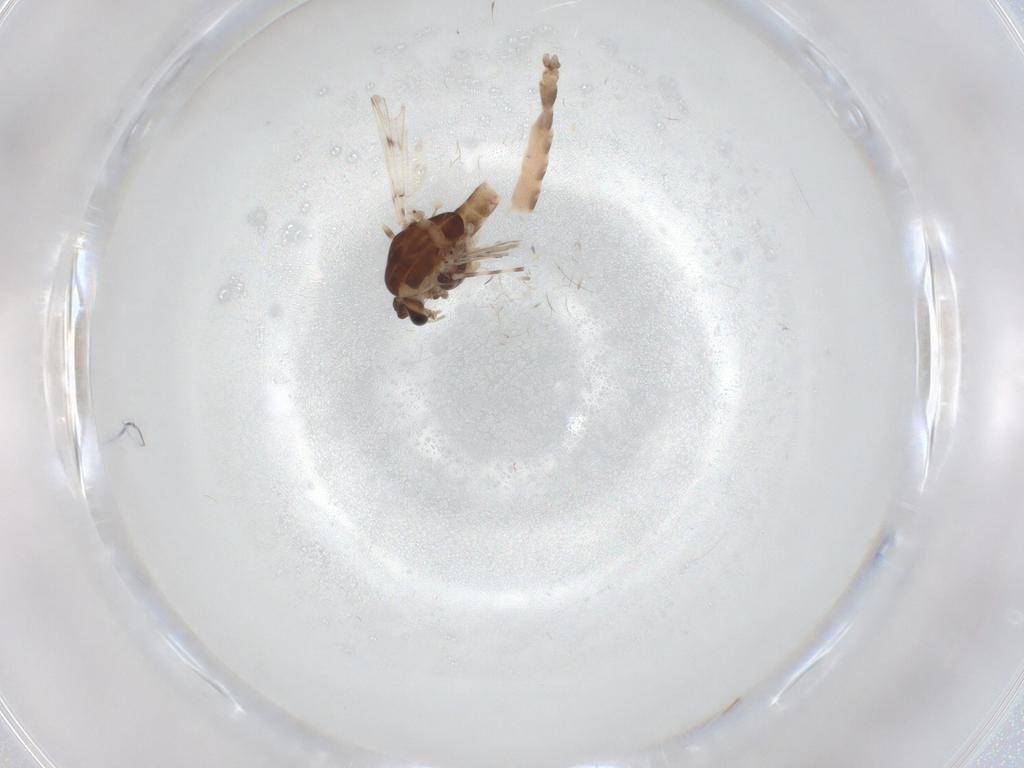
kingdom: Animalia
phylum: Arthropoda
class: Insecta
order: Diptera
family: Chironomidae
